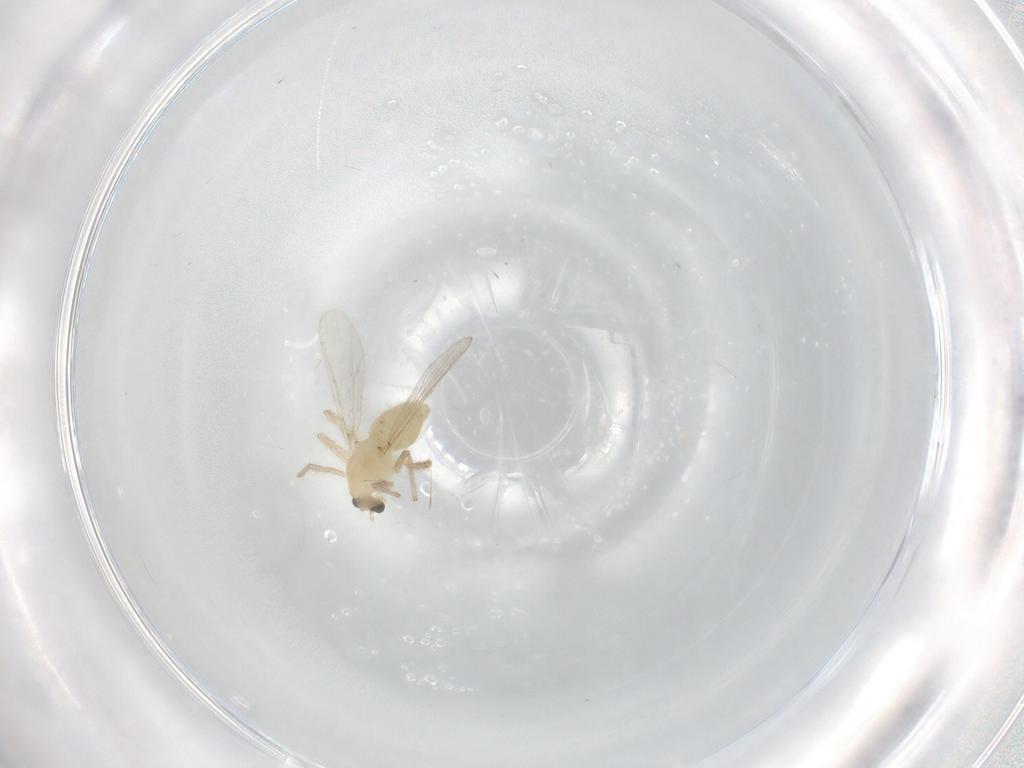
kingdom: Animalia
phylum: Arthropoda
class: Insecta
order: Diptera
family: Chironomidae
